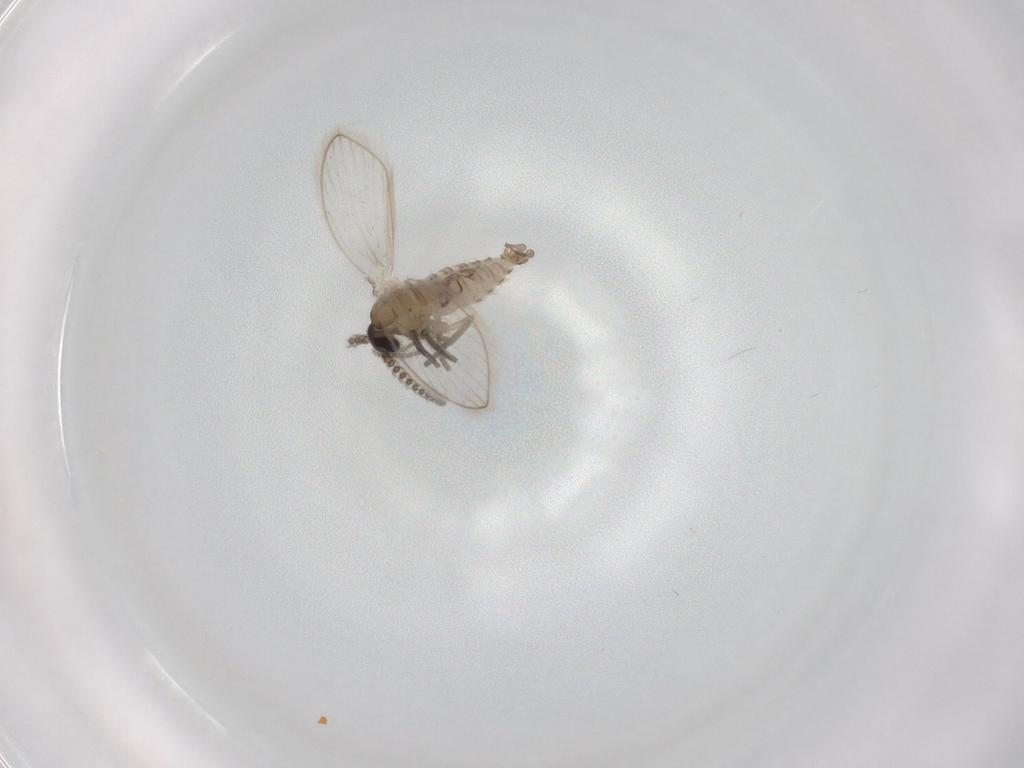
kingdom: Animalia
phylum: Arthropoda
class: Insecta
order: Diptera
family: Psychodidae
